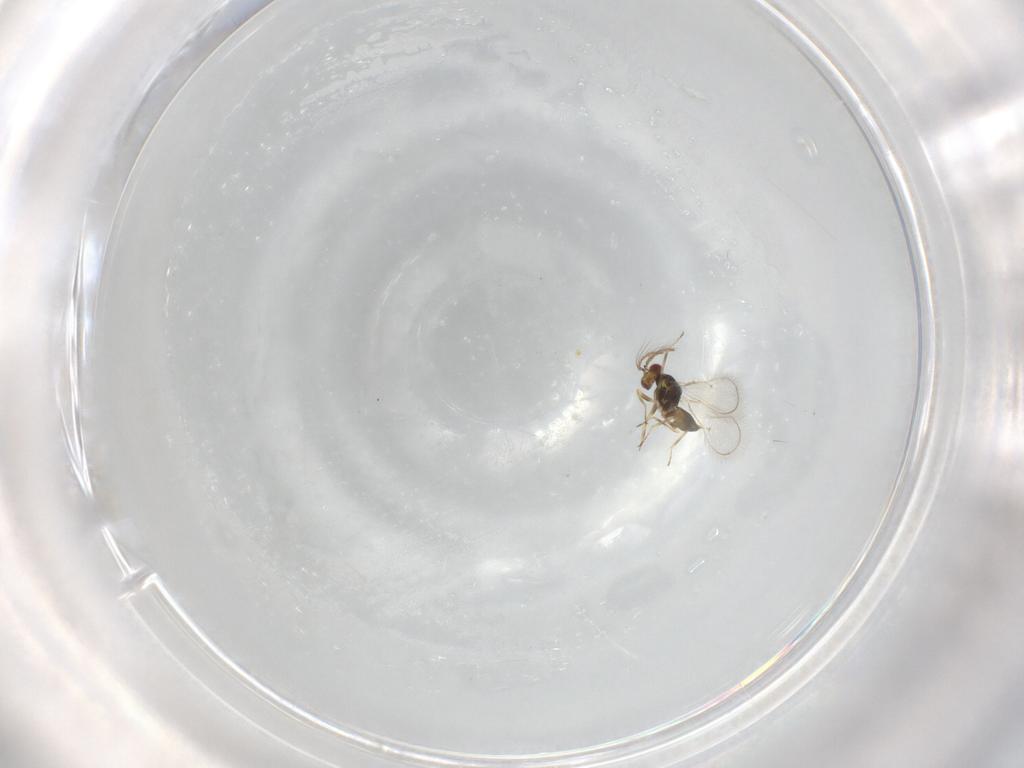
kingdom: Animalia
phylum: Arthropoda
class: Insecta
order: Hymenoptera
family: Eulophidae
